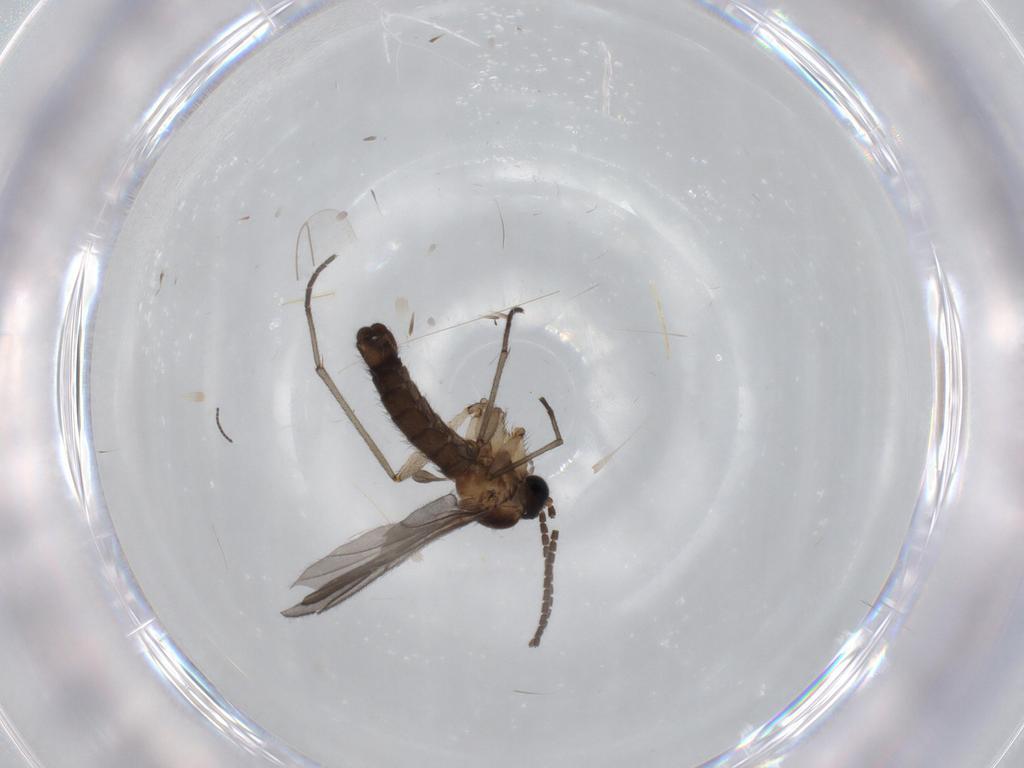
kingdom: Animalia
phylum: Arthropoda
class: Insecta
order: Diptera
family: Sciaridae
